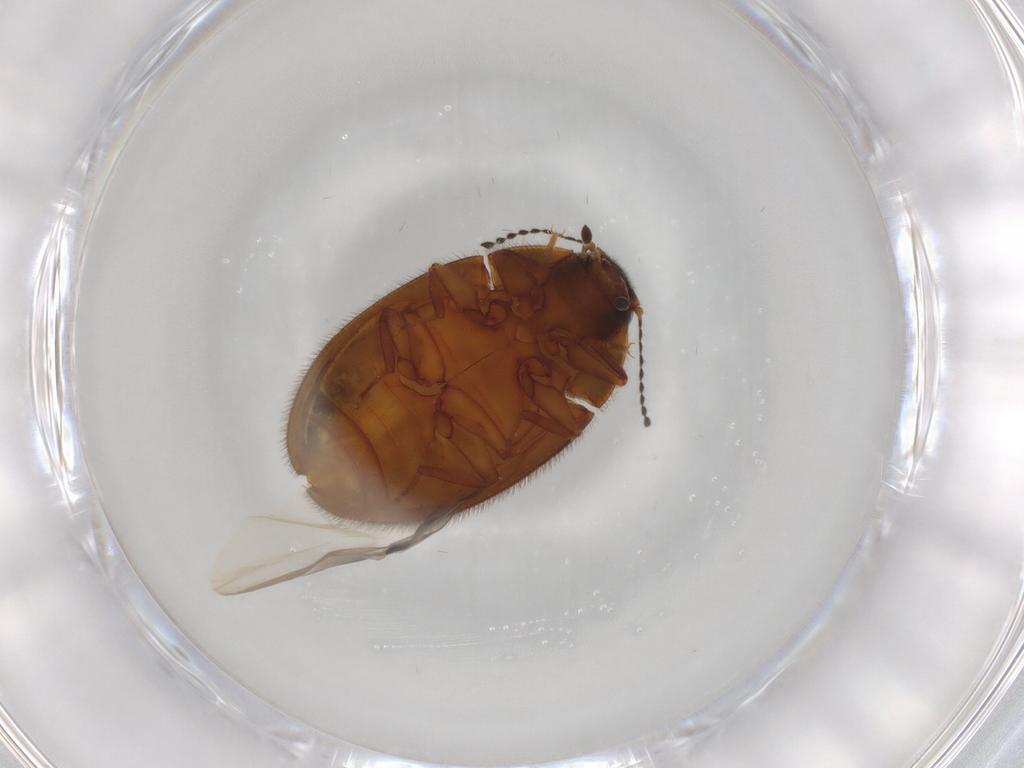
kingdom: Animalia
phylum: Arthropoda
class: Insecta
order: Coleoptera
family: Limnichidae
